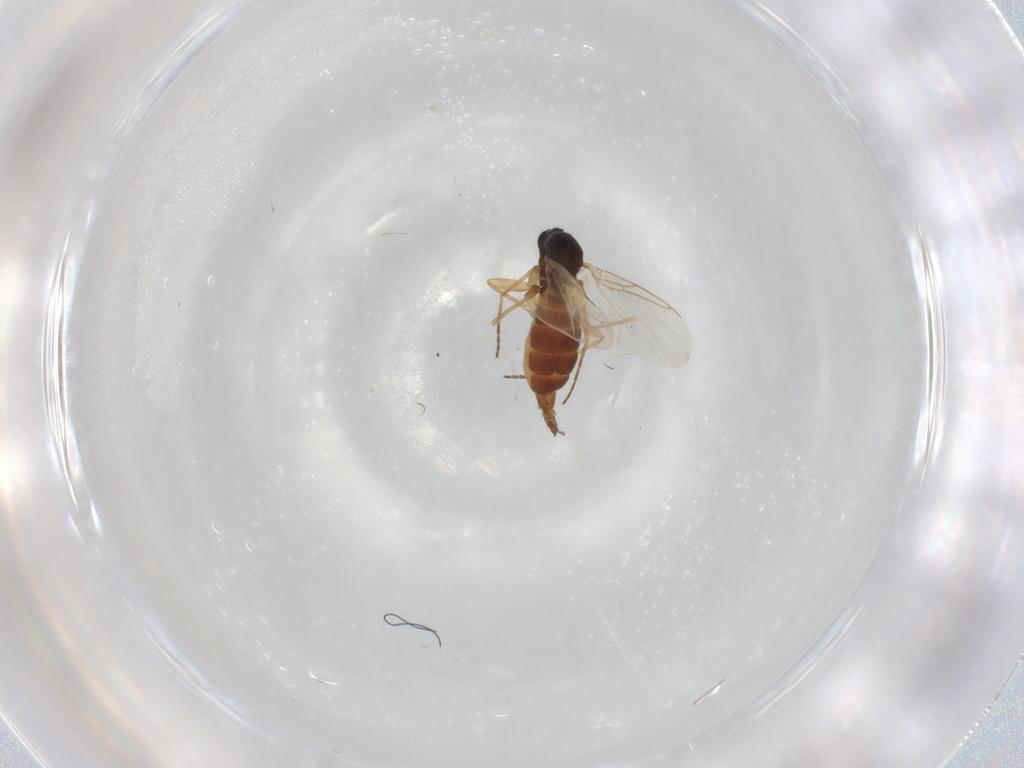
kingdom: Animalia
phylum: Arthropoda
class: Insecta
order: Diptera
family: Sciaridae
